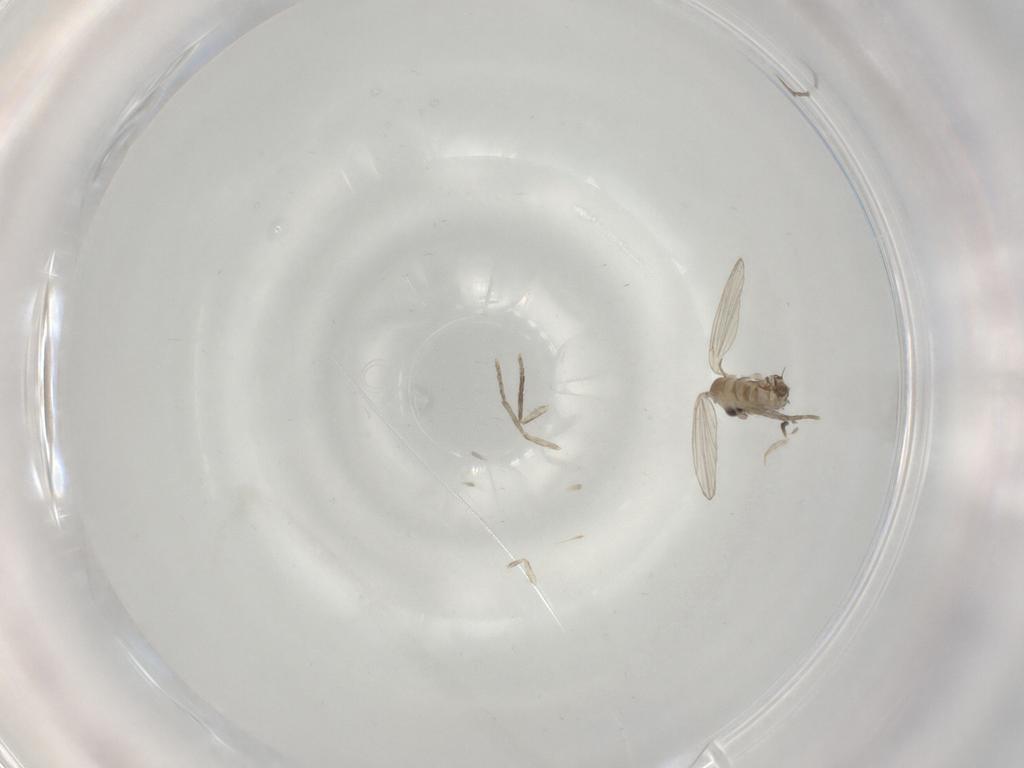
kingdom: Animalia
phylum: Arthropoda
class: Insecta
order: Diptera
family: Psychodidae
